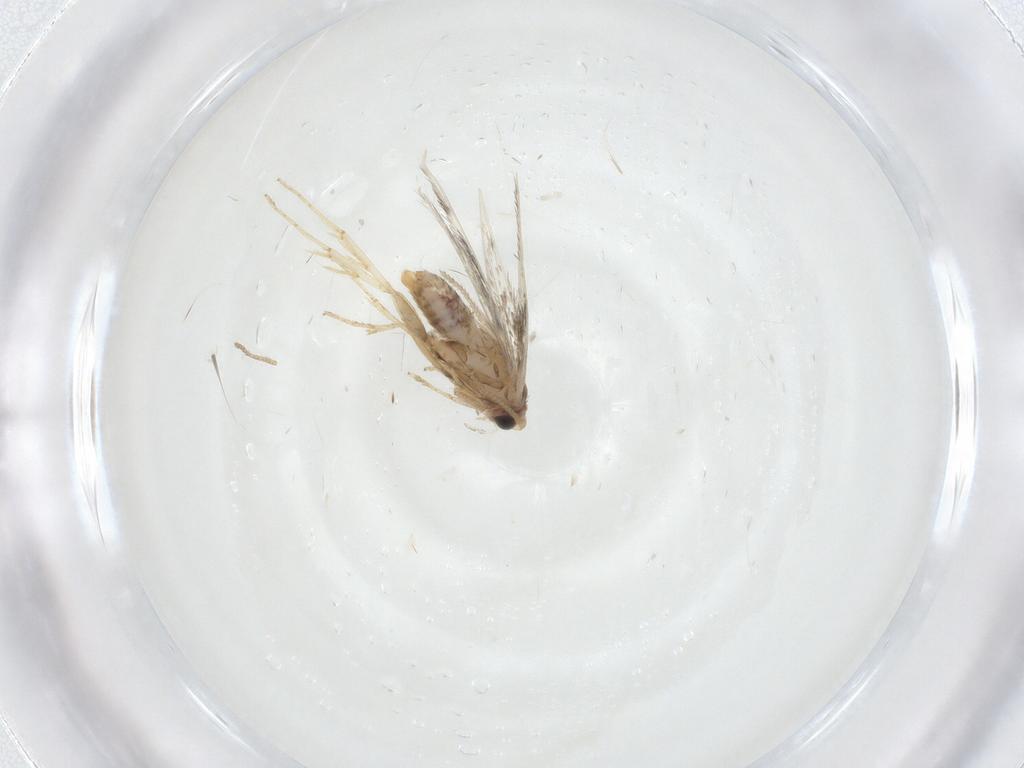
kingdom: Animalia
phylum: Arthropoda
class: Insecta
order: Lepidoptera
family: Nepticulidae
